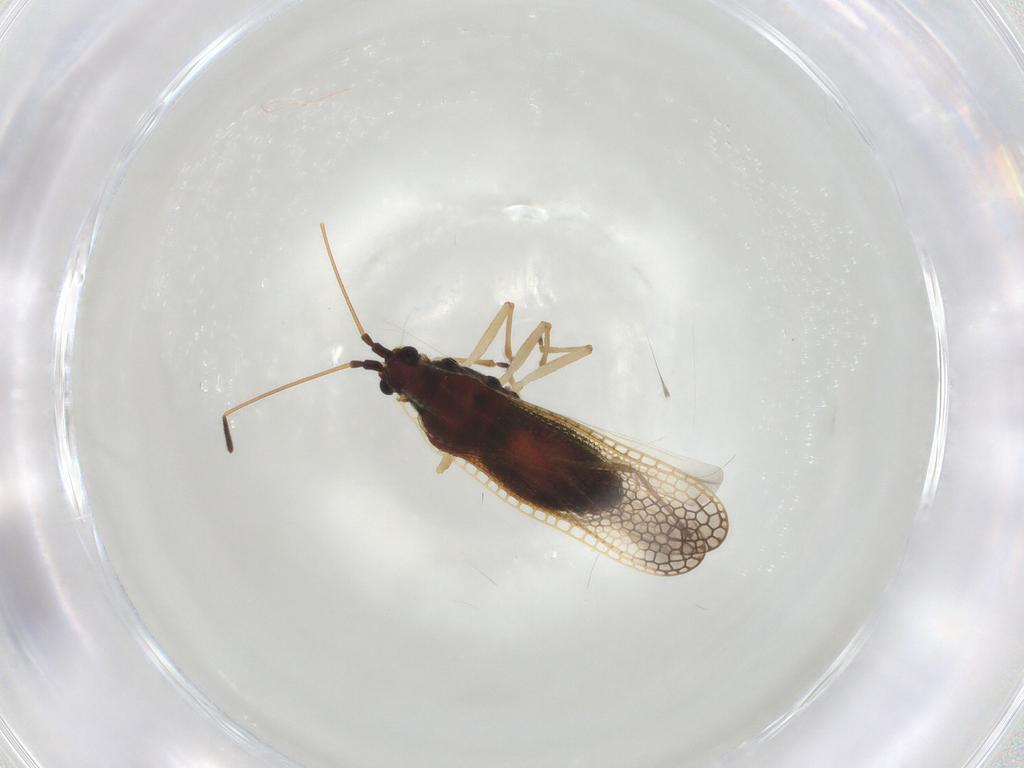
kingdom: Animalia
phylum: Arthropoda
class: Insecta
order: Hemiptera
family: Tingidae
